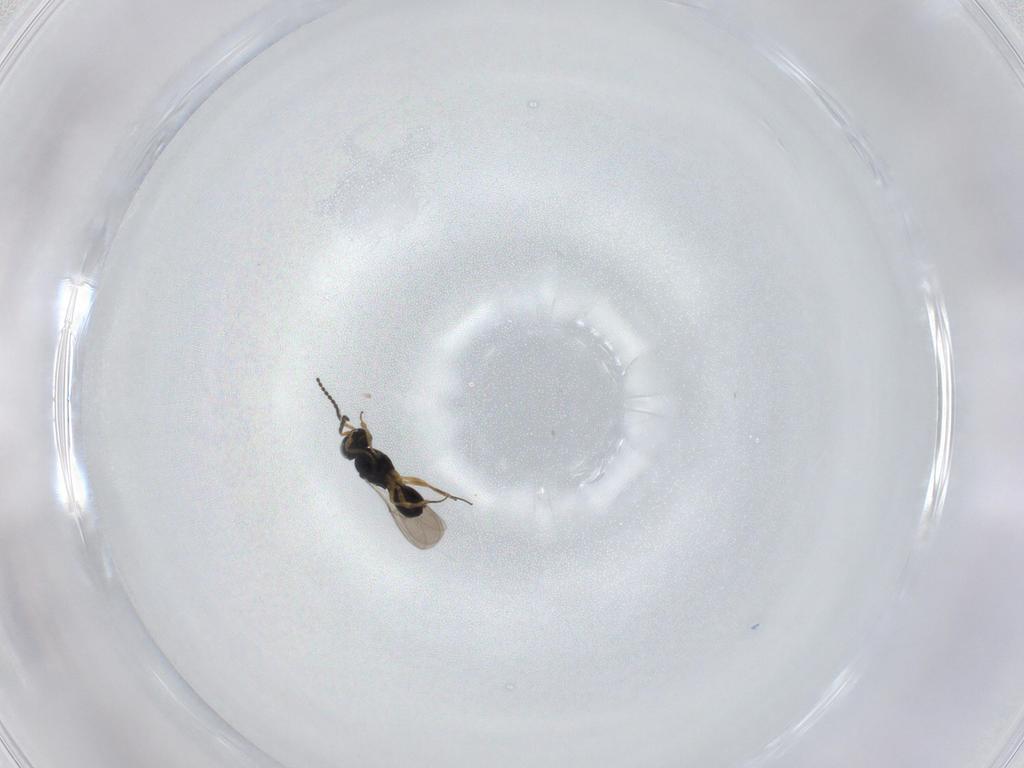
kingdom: Animalia
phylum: Arthropoda
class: Insecta
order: Hymenoptera
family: Scelionidae
